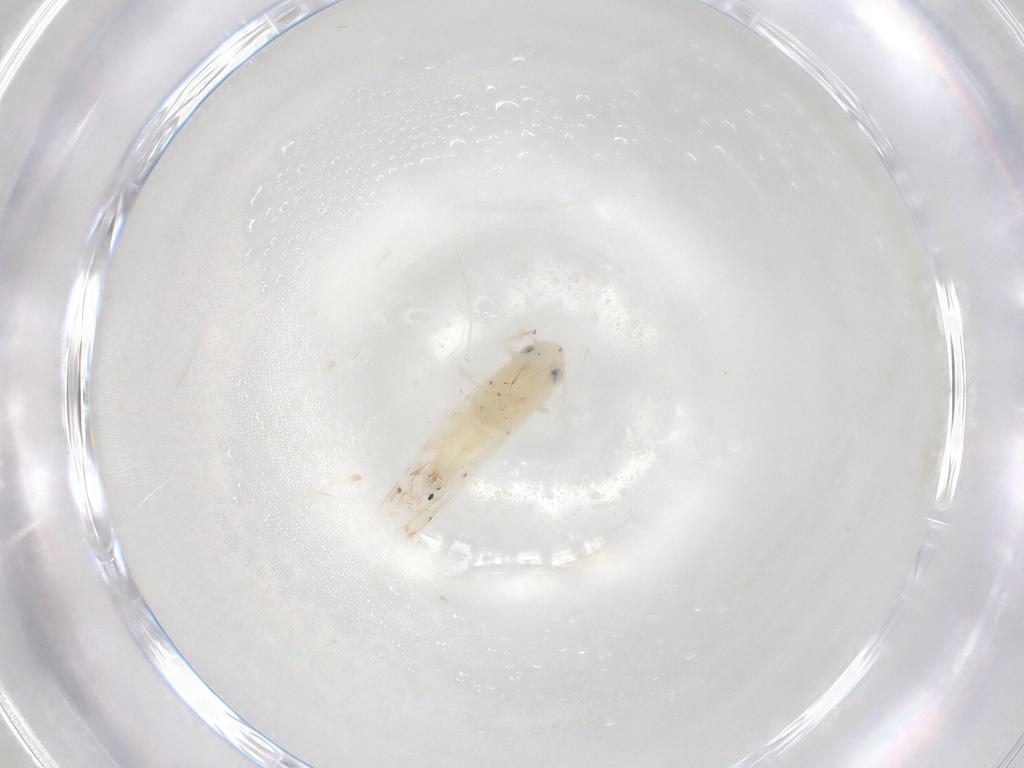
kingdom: Animalia
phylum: Arthropoda
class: Insecta
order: Hemiptera
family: Cicadellidae
